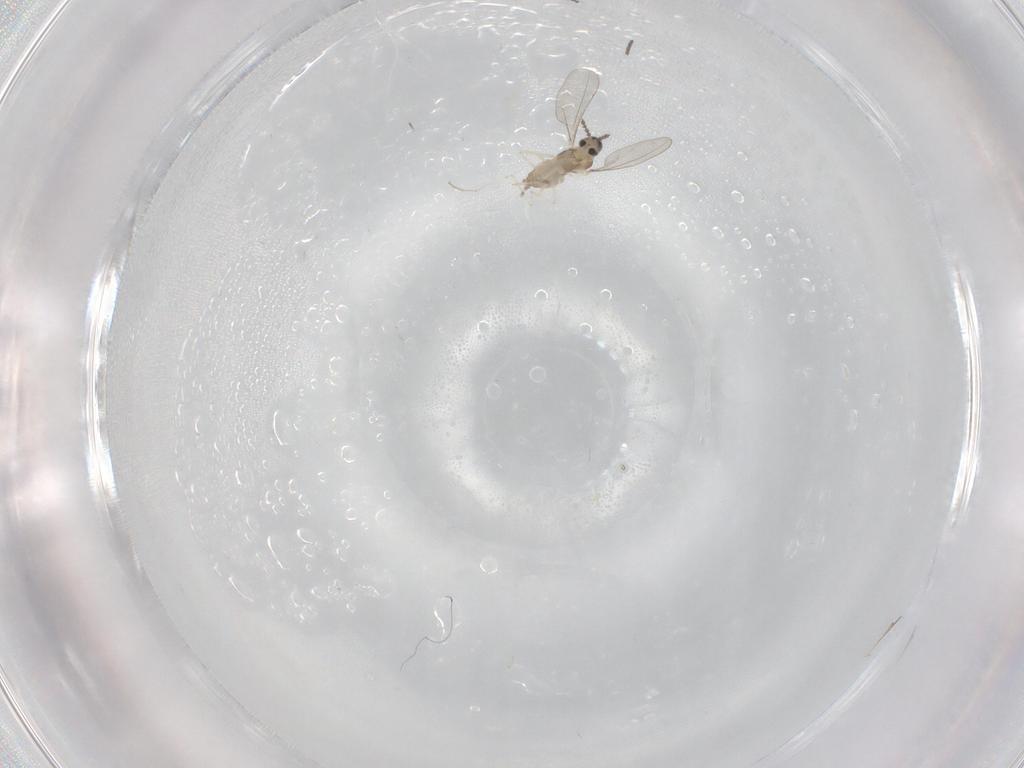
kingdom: Animalia
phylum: Arthropoda
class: Insecta
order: Diptera
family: Cecidomyiidae
